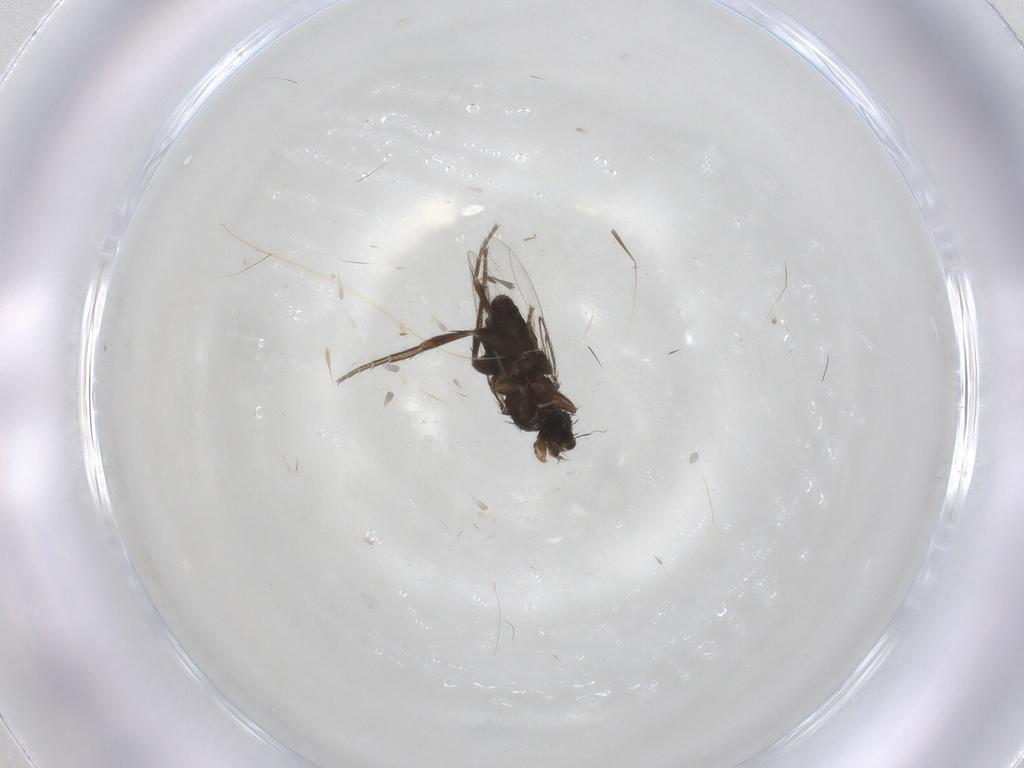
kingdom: Animalia
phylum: Arthropoda
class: Insecta
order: Diptera
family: Phoridae
